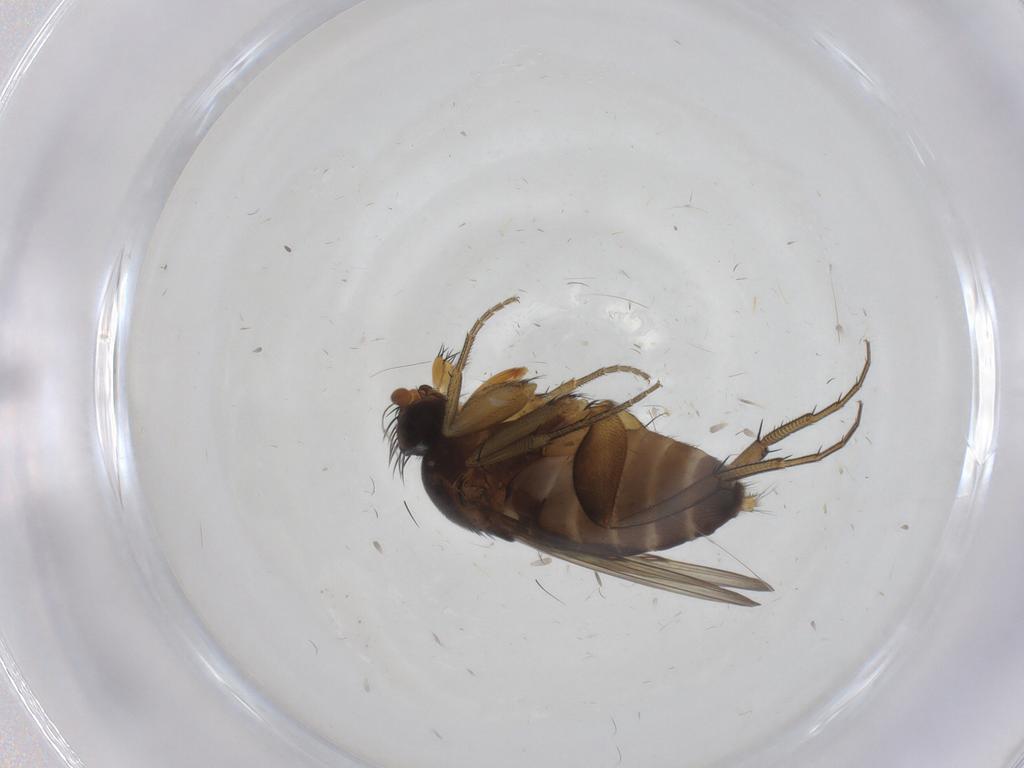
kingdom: Animalia
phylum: Arthropoda
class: Insecta
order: Diptera
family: Phoridae
